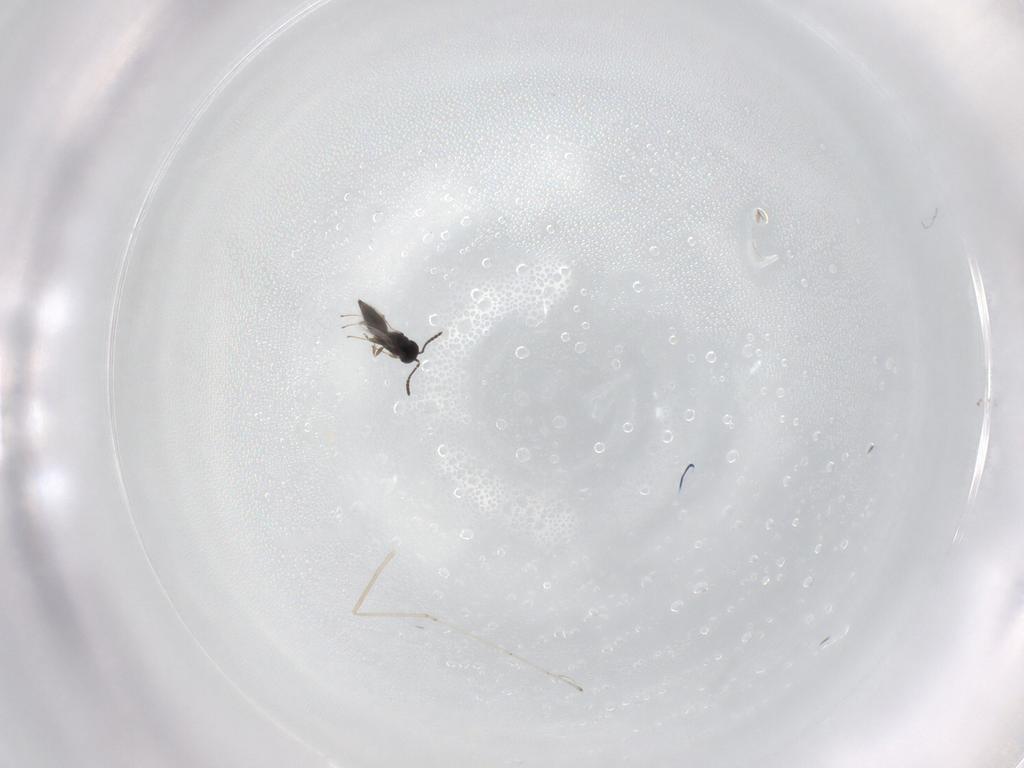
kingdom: Animalia
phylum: Arthropoda
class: Insecta
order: Hymenoptera
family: Scelionidae
